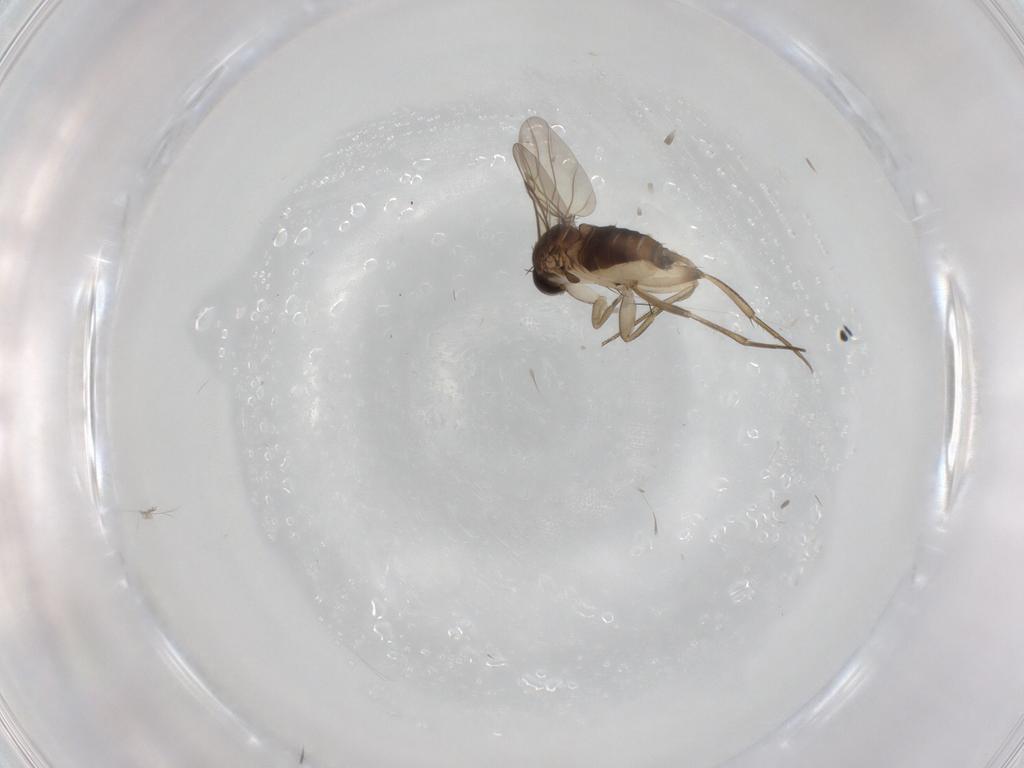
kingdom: Animalia
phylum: Arthropoda
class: Insecta
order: Diptera
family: Phoridae
